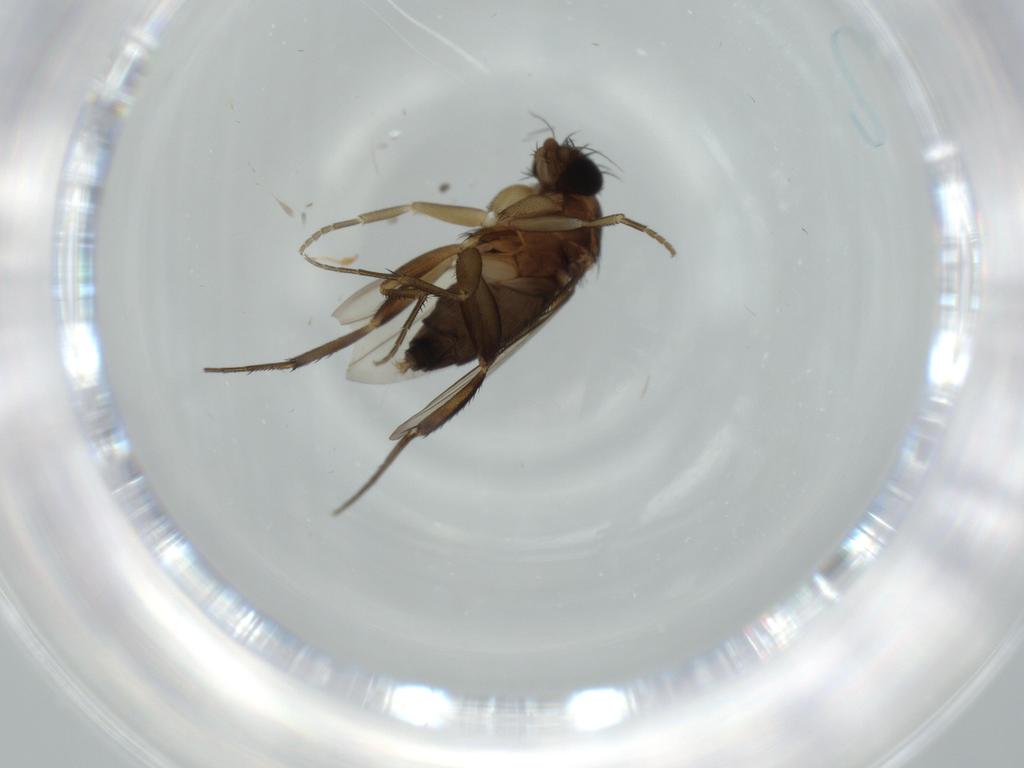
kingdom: Animalia
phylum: Arthropoda
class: Insecta
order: Diptera
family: Phoridae
